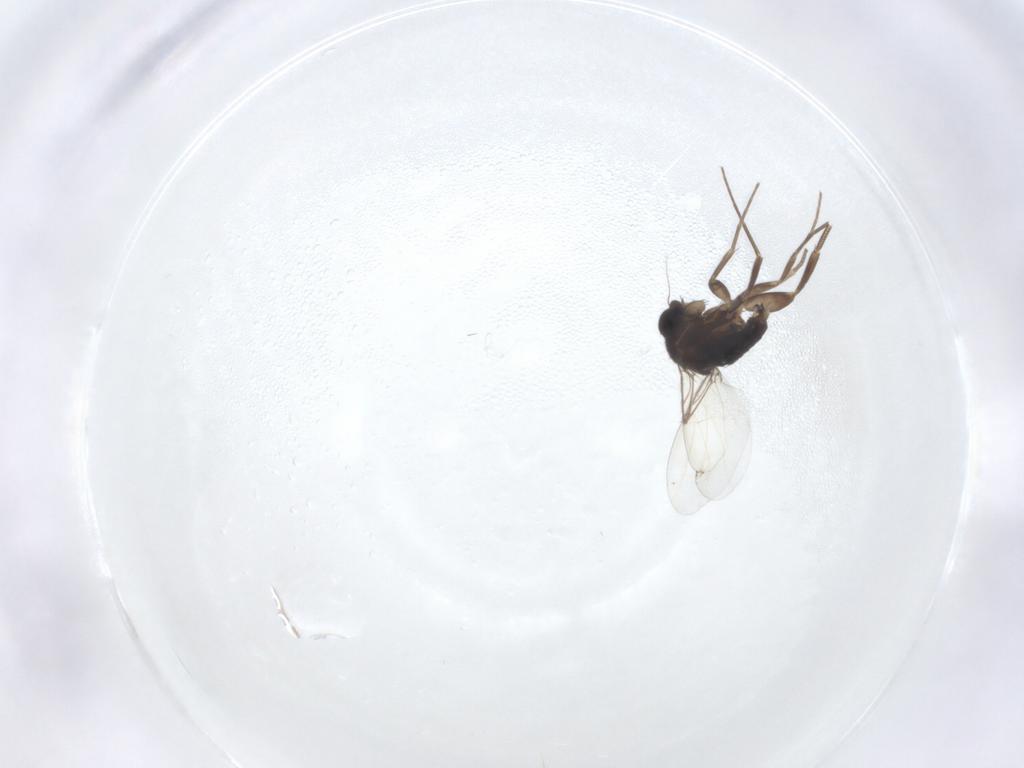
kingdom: Animalia
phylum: Arthropoda
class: Insecta
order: Diptera
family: Phoridae
